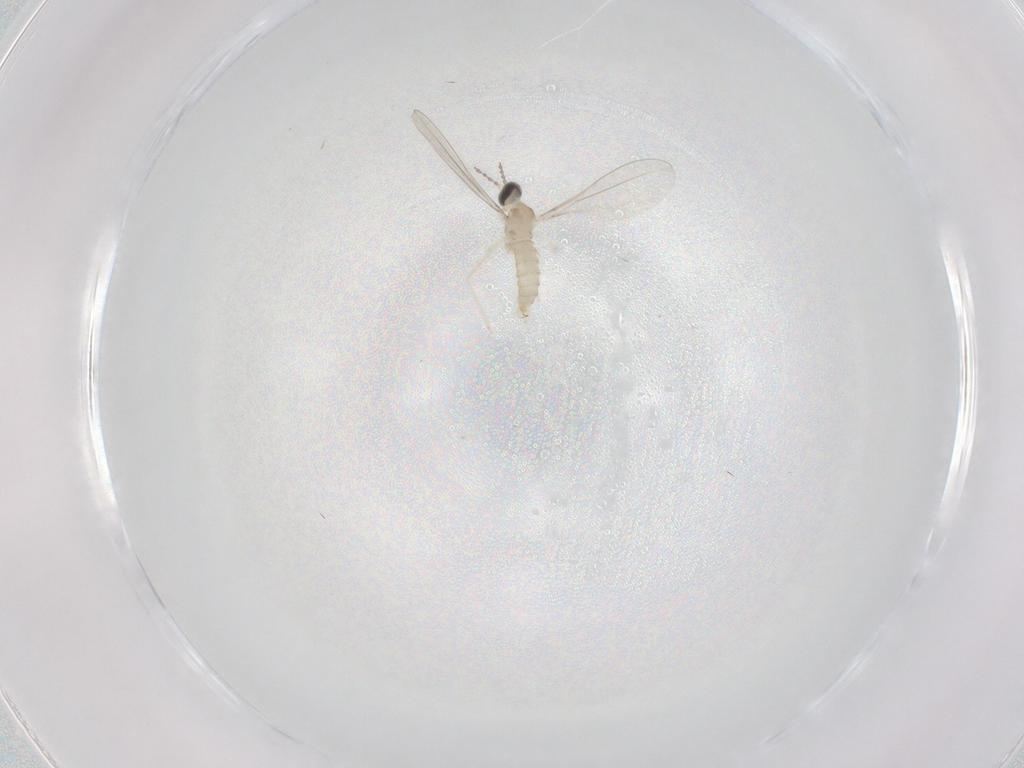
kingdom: Animalia
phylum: Arthropoda
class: Insecta
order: Diptera
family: Cecidomyiidae
